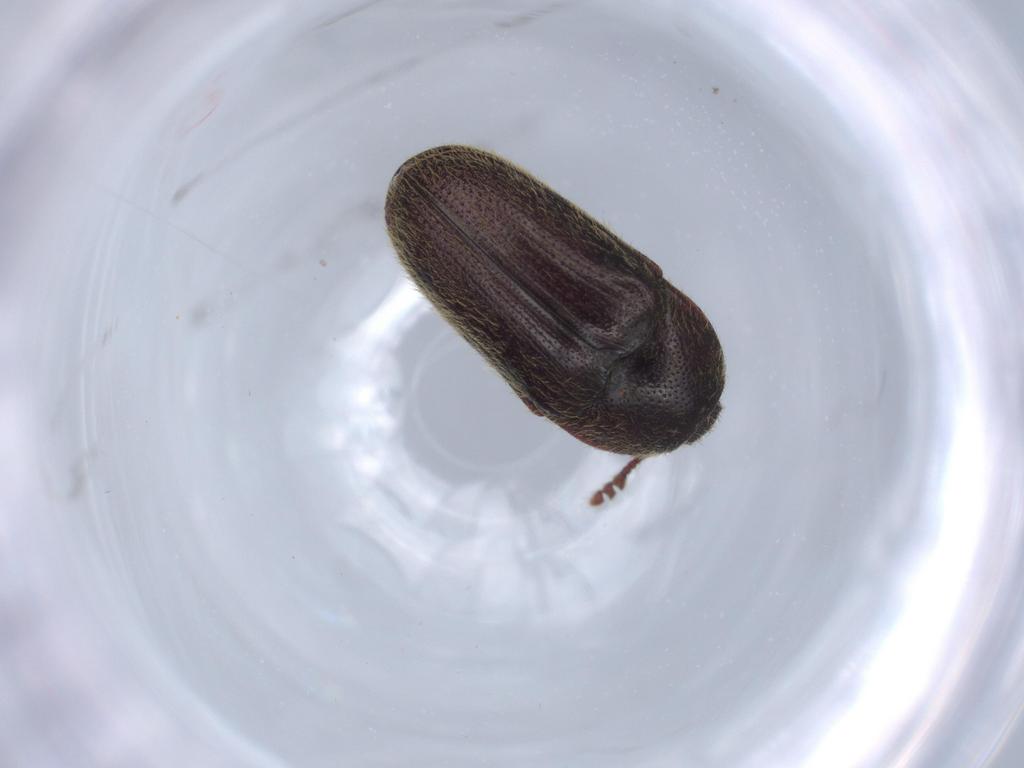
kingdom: Animalia
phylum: Arthropoda
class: Insecta
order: Coleoptera
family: Throscidae
